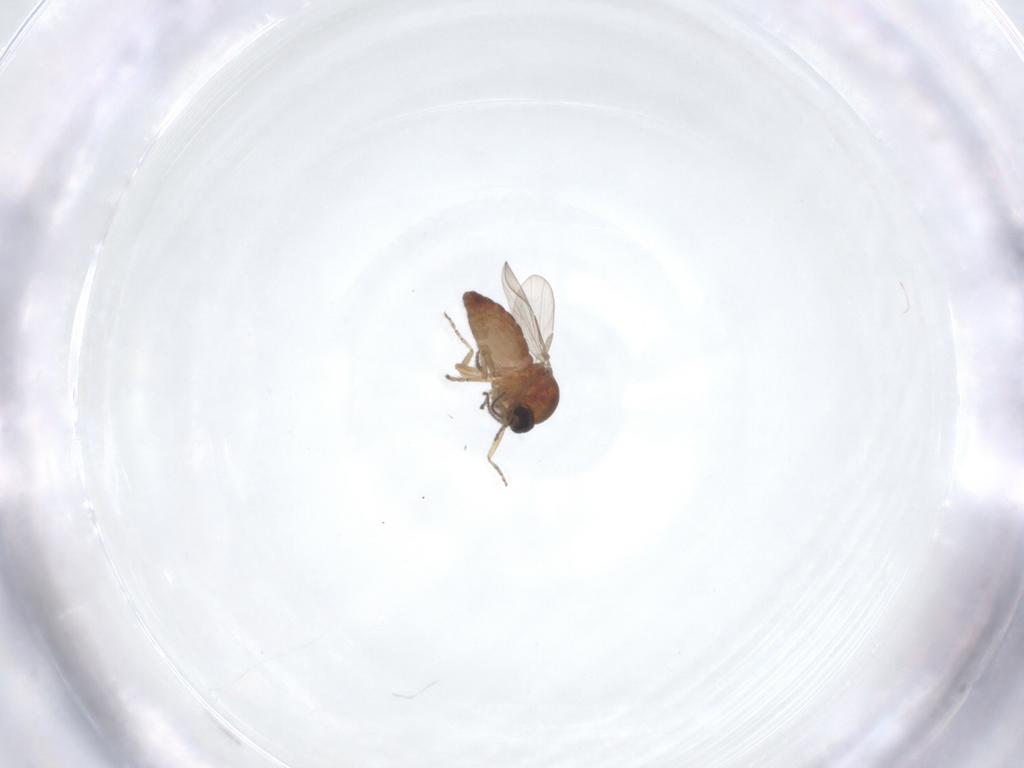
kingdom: Animalia
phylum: Arthropoda
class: Insecta
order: Diptera
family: Ceratopogonidae
